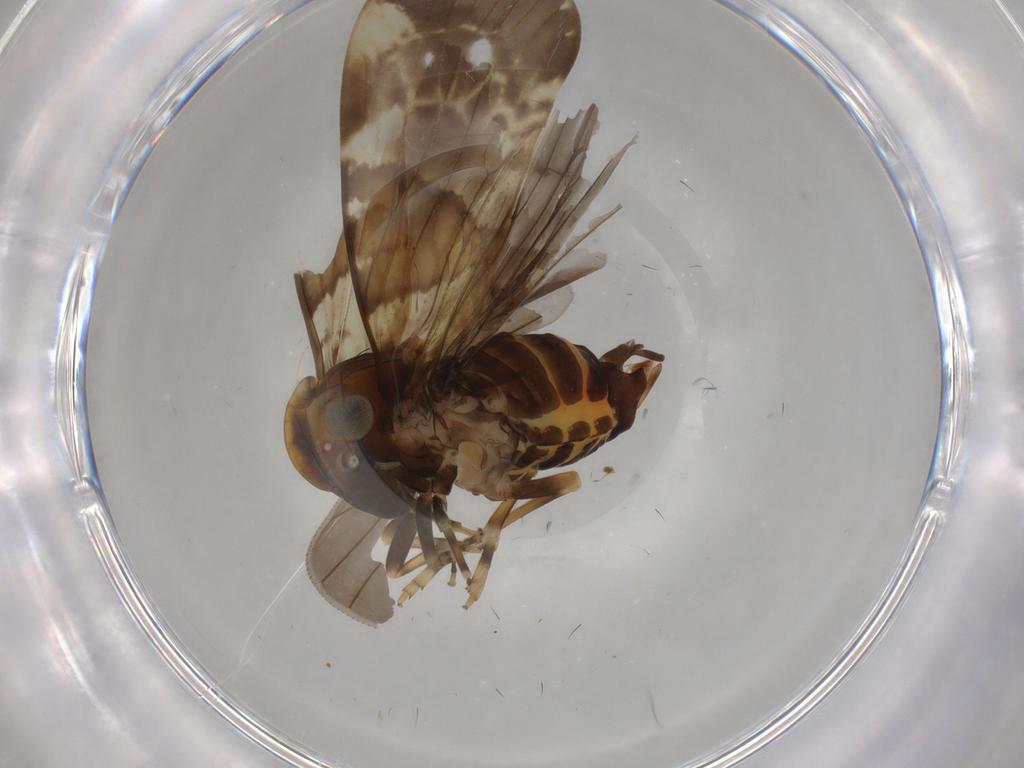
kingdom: Animalia
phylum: Arthropoda
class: Insecta
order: Hemiptera
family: Cixiidae
